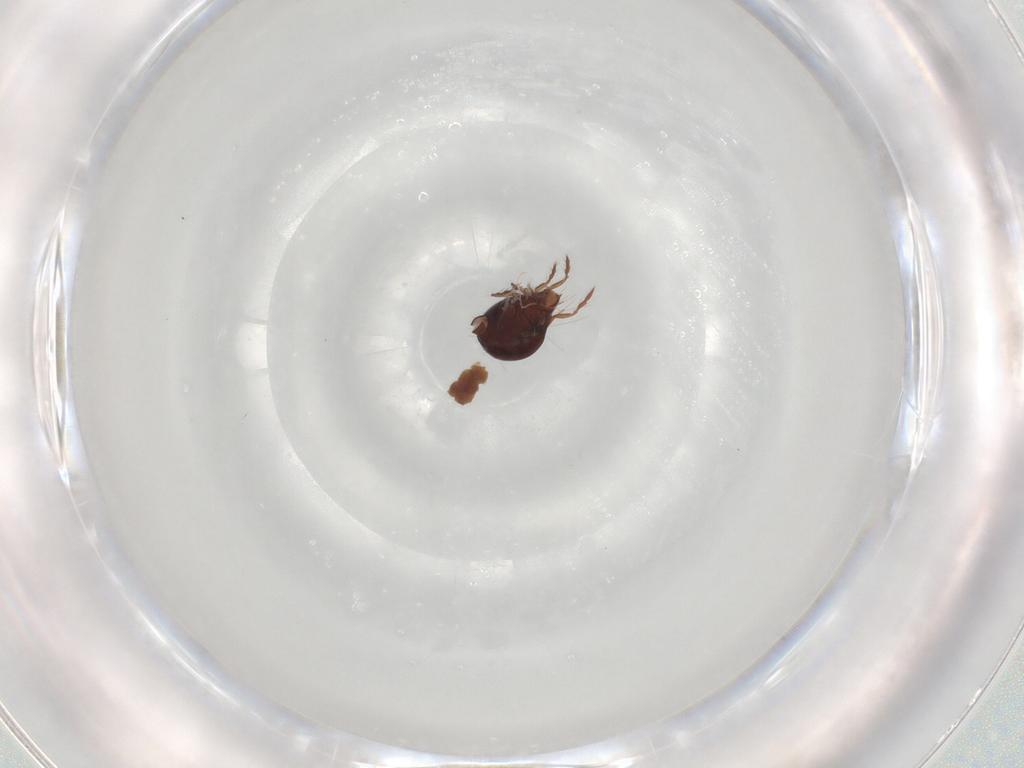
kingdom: Animalia
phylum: Arthropoda
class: Arachnida
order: Sarcoptiformes
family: Ceratoppiidae
